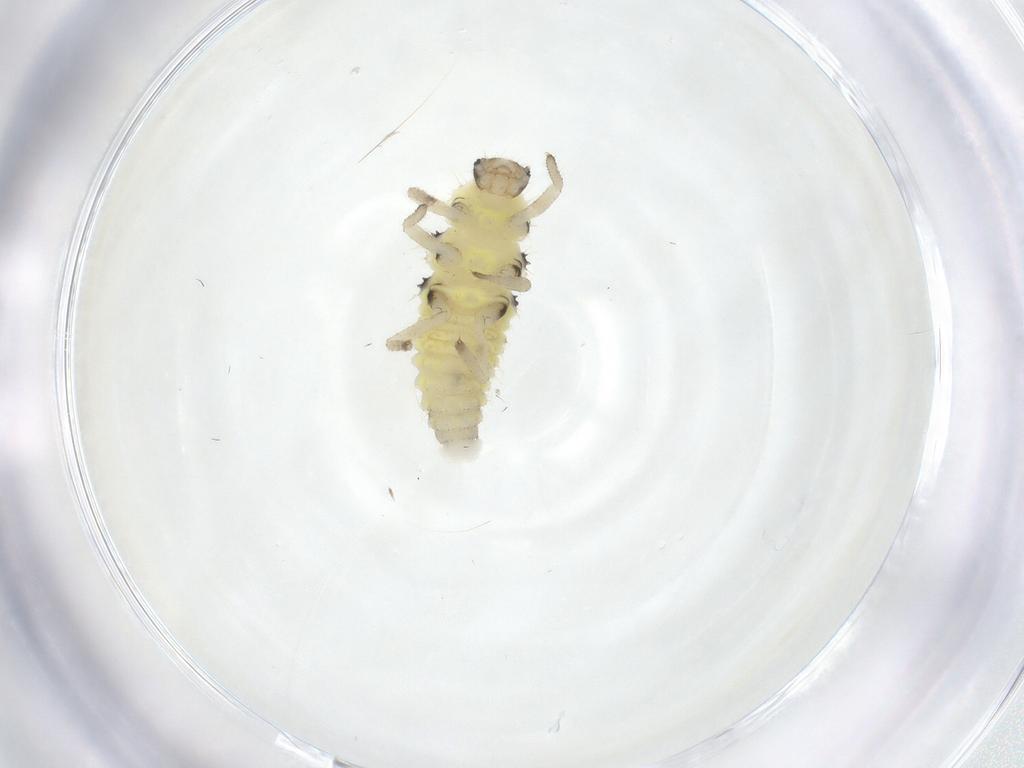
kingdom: Animalia
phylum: Arthropoda
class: Insecta
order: Coleoptera
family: Coccinellidae
